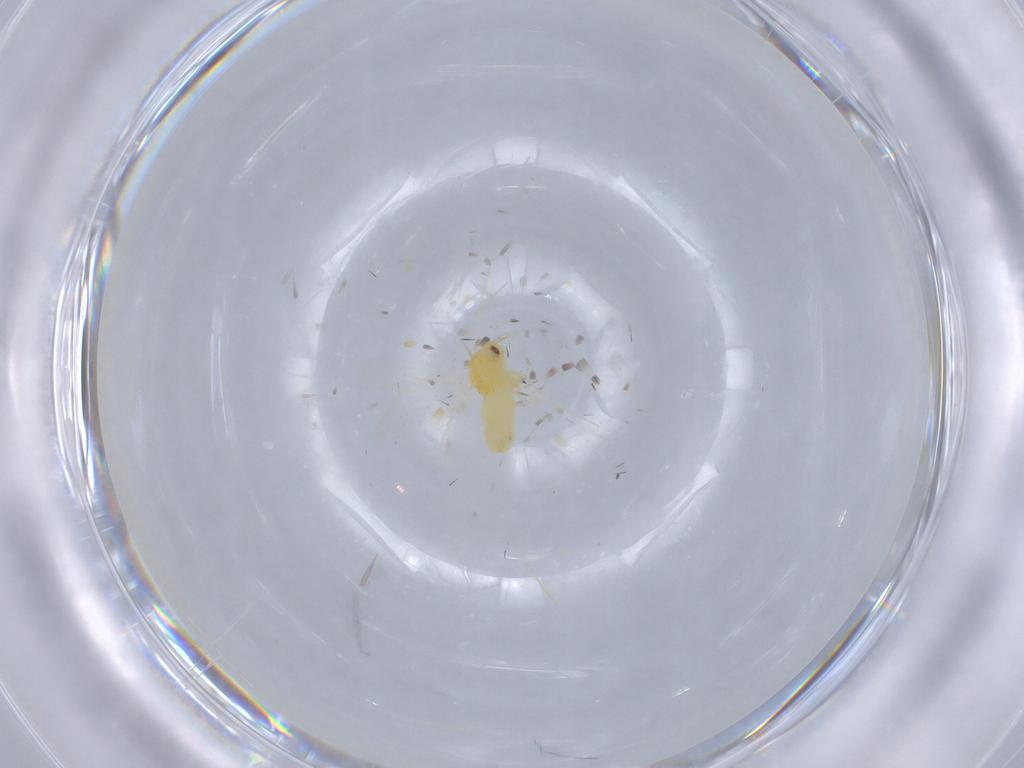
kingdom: Animalia
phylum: Arthropoda
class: Insecta
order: Hemiptera
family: Aleyrodidae
